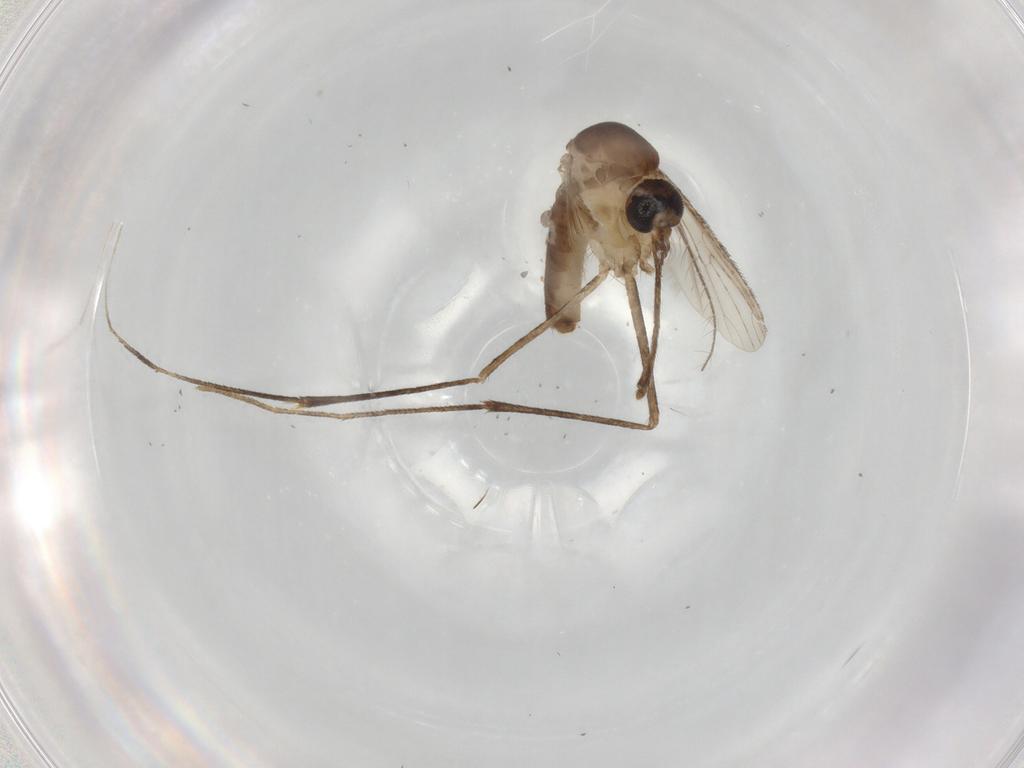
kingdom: Animalia
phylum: Arthropoda
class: Insecta
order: Diptera
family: Cecidomyiidae
